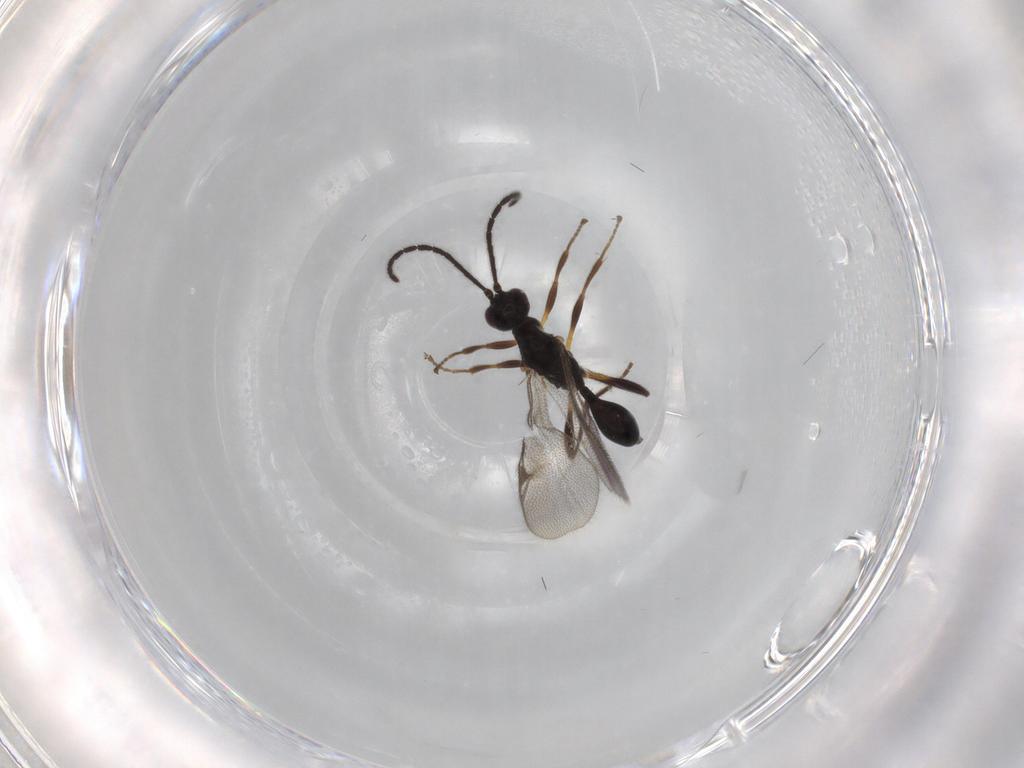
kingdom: Animalia
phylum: Arthropoda
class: Insecta
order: Hymenoptera
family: Proctotrupidae
